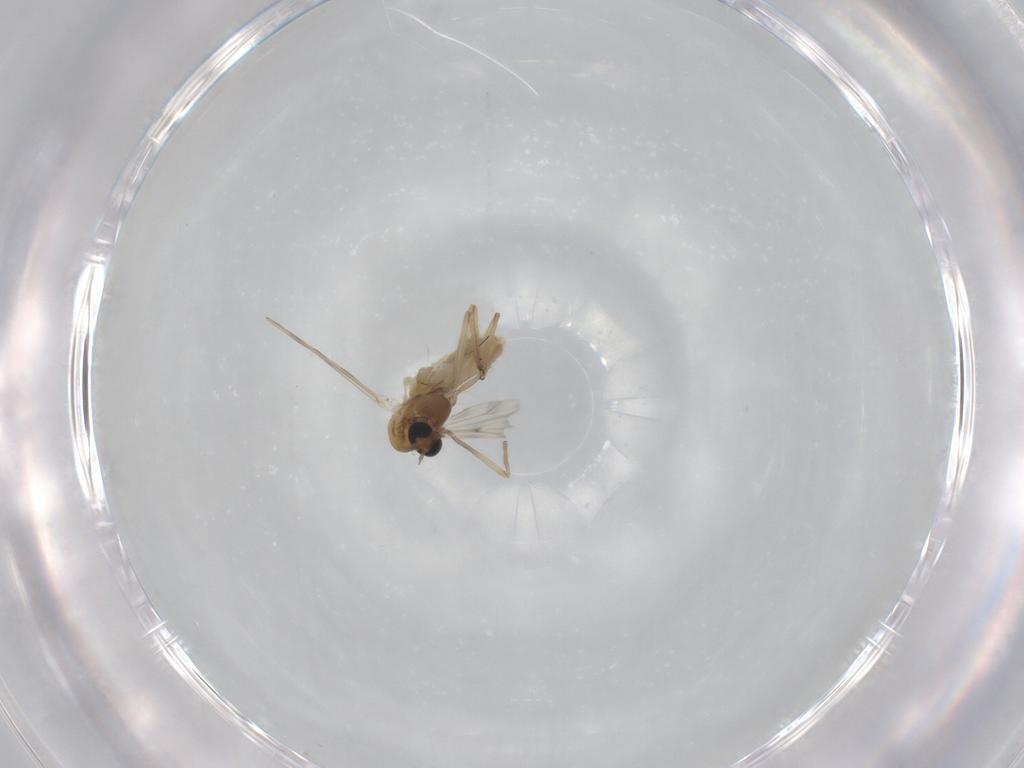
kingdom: Animalia
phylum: Arthropoda
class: Insecta
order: Diptera
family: Chironomidae
